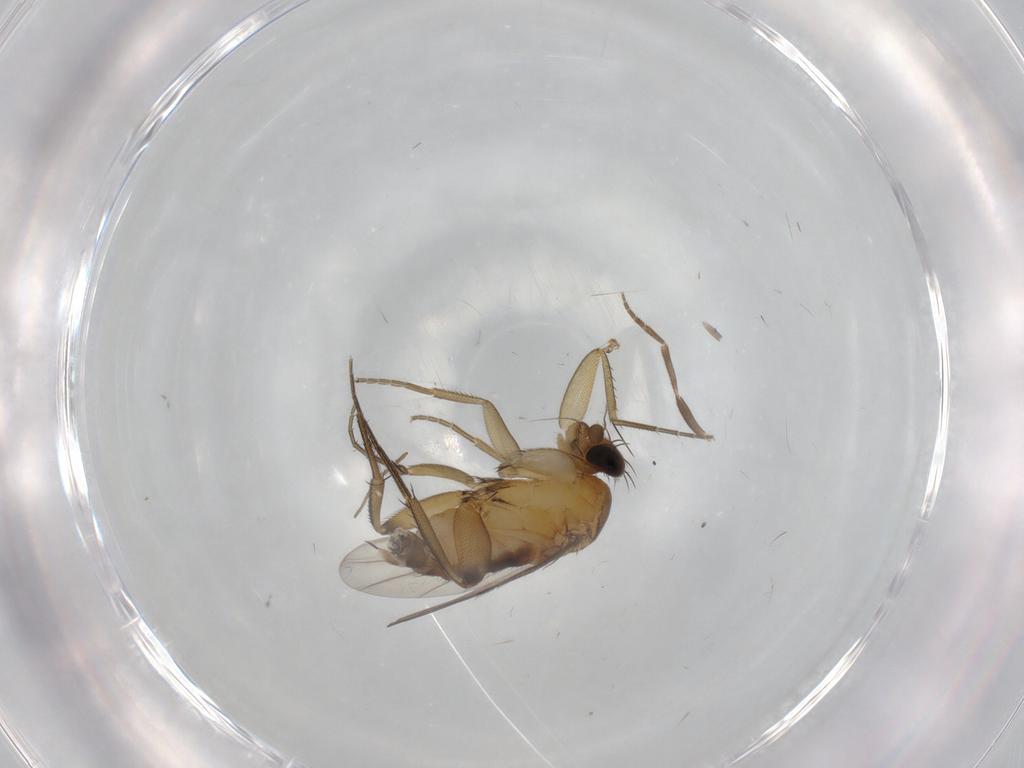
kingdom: Animalia
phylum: Arthropoda
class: Insecta
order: Diptera
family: Phoridae
